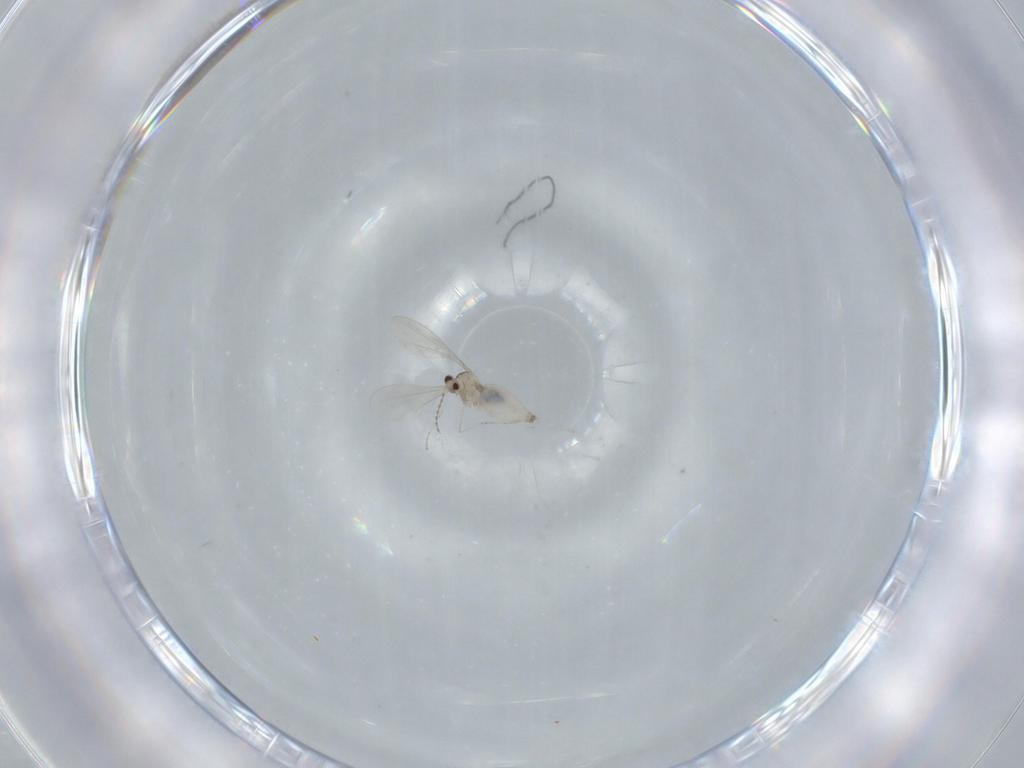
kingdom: Animalia
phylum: Arthropoda
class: Insecta
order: Diptera
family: Cecidomyiidae
